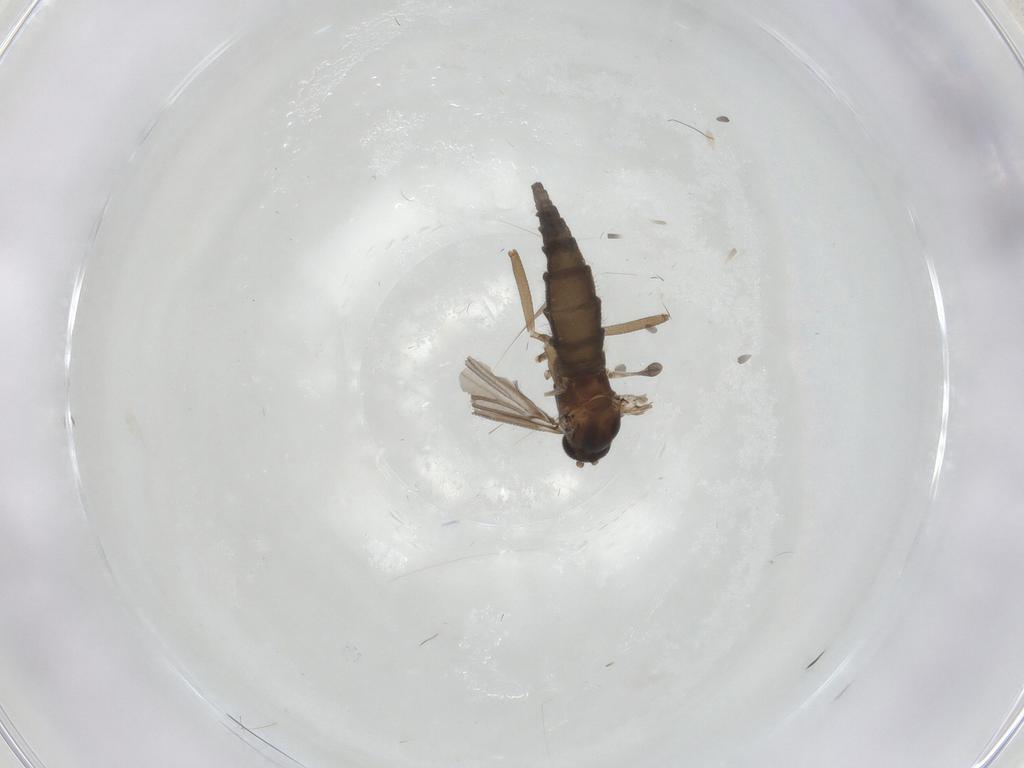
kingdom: Animalia
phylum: Arthropoda
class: Insecta
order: Diptera
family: Sciaridae
